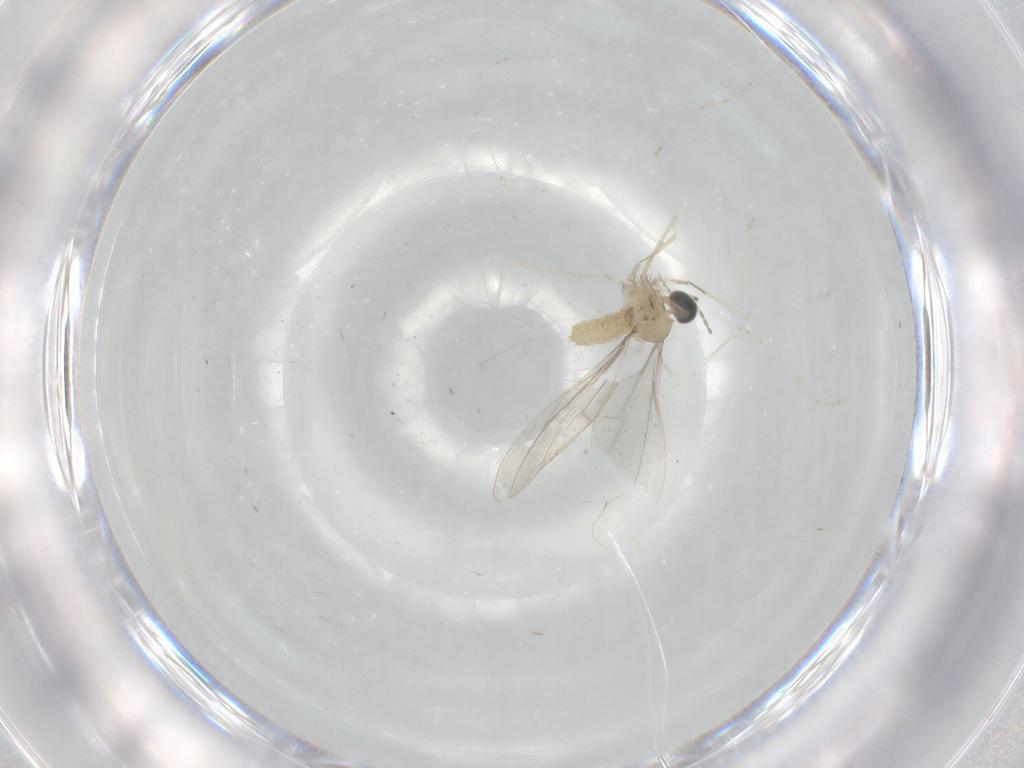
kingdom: Animalia
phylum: Arthropoda
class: Insecta
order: Diptera
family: Cecidomyiidae
